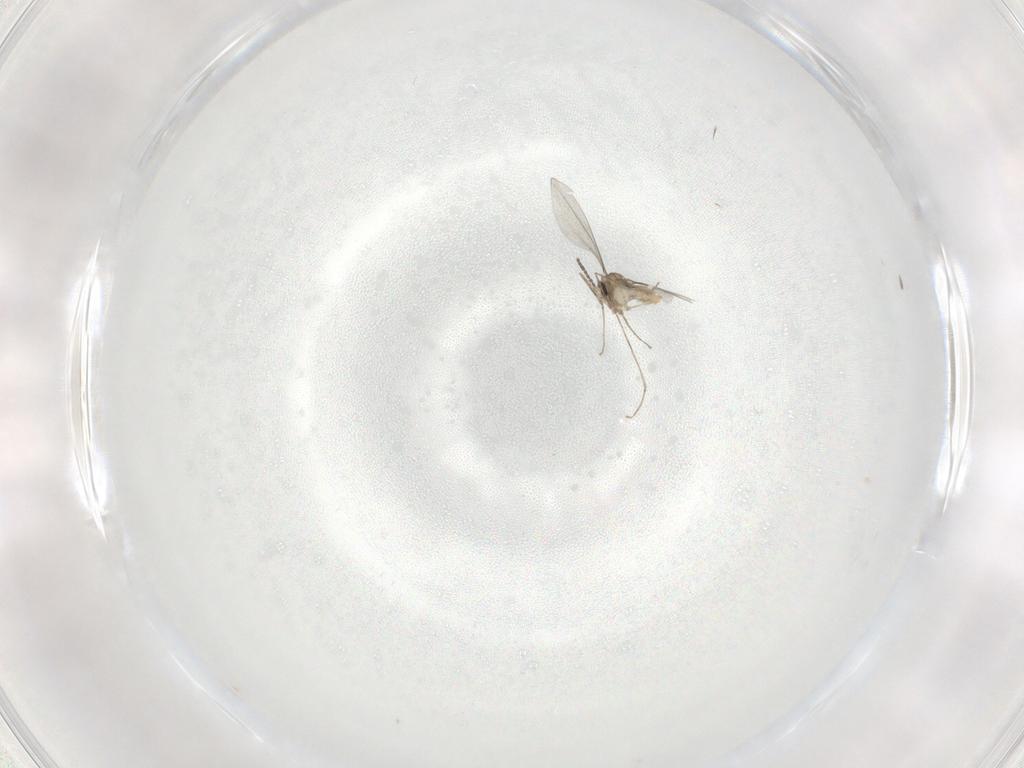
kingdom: Animalia
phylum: Arthropoda
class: Insecta
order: Diptera
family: Cecidomyiidae
